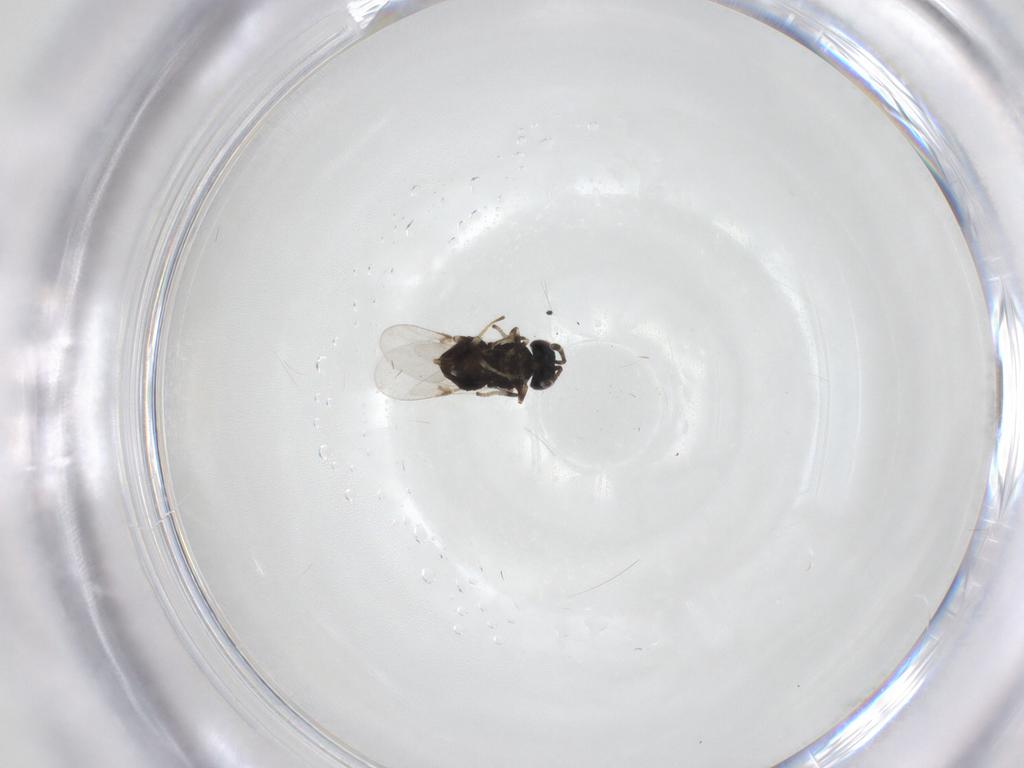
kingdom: Animalia
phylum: Arthropoda
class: Insecta
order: Hymenoptera
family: Encyrtidae
